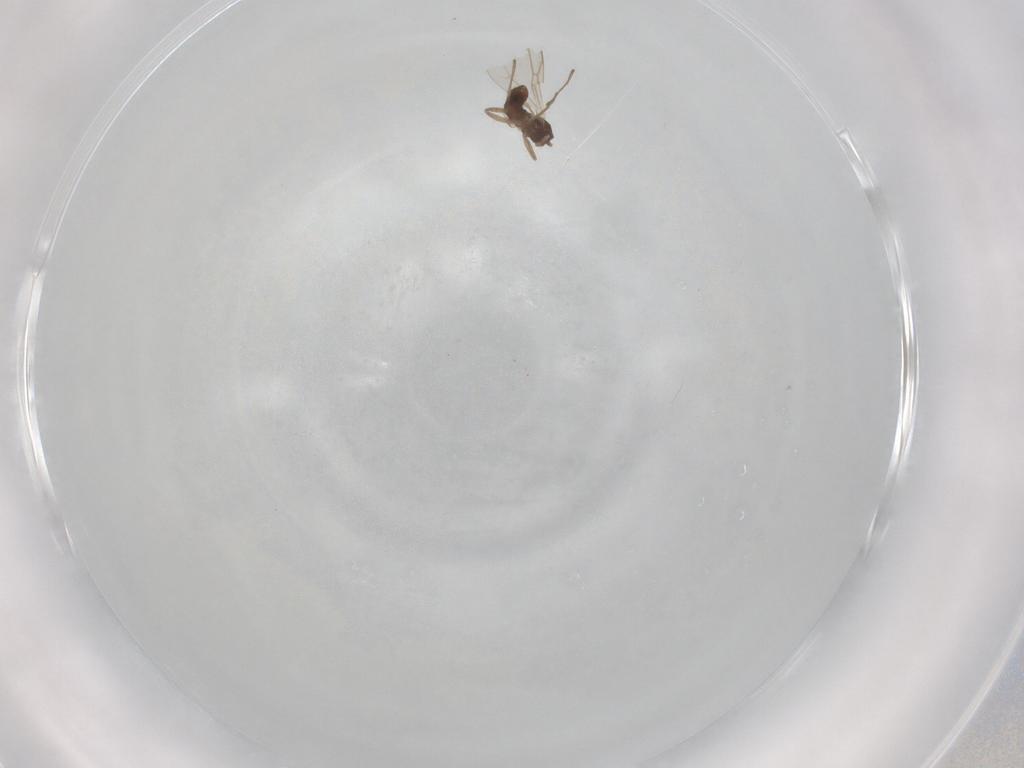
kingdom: Animalia
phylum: Arthropoda
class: Insecta
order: Diptera
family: Cecidomyiidae
